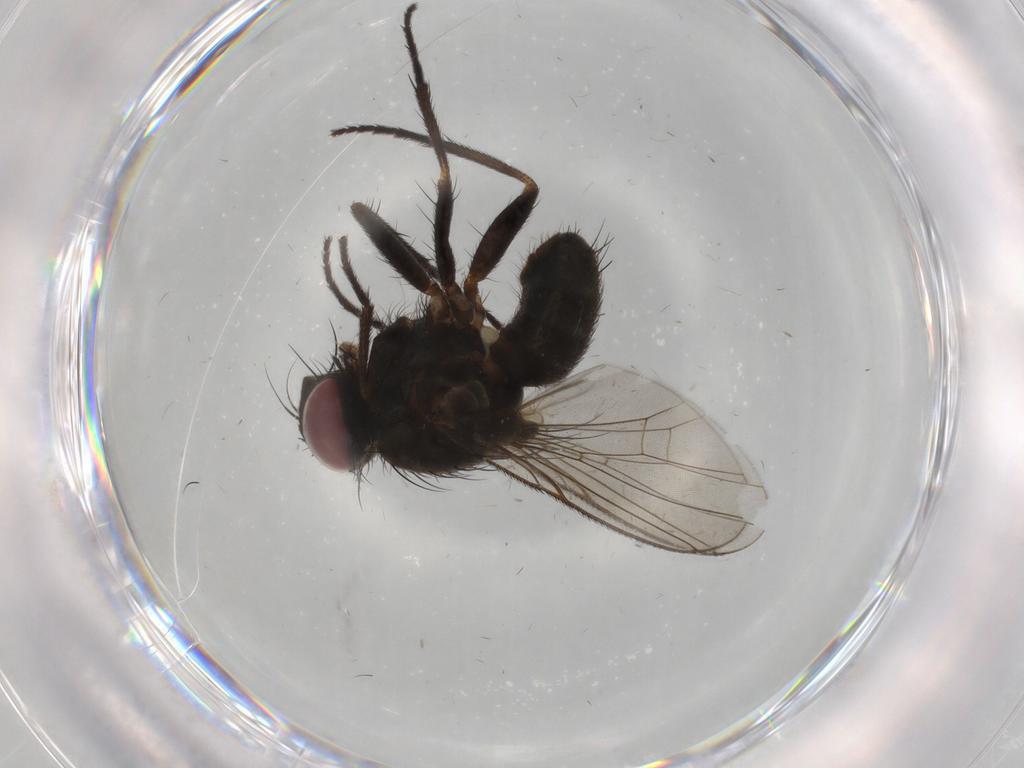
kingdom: Animalia
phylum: Arthropoda
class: Insecta
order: Diptera
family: Muscidae
